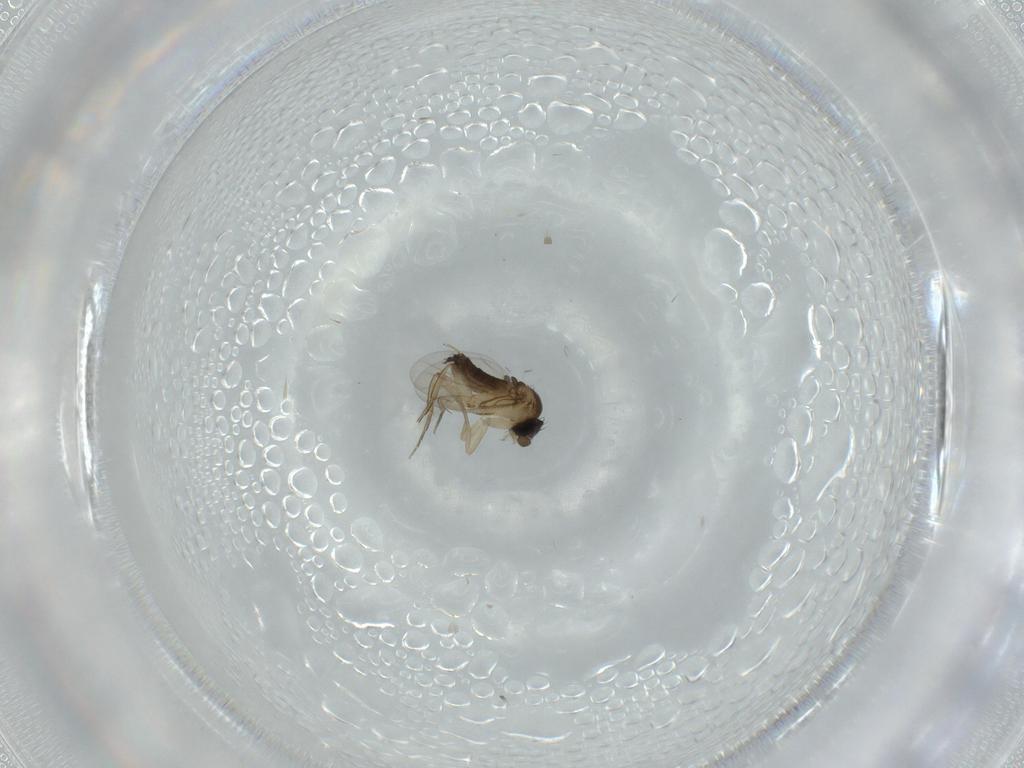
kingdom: Animalia
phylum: Arthropoda
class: Insecta
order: Diptera
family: Phoridae
